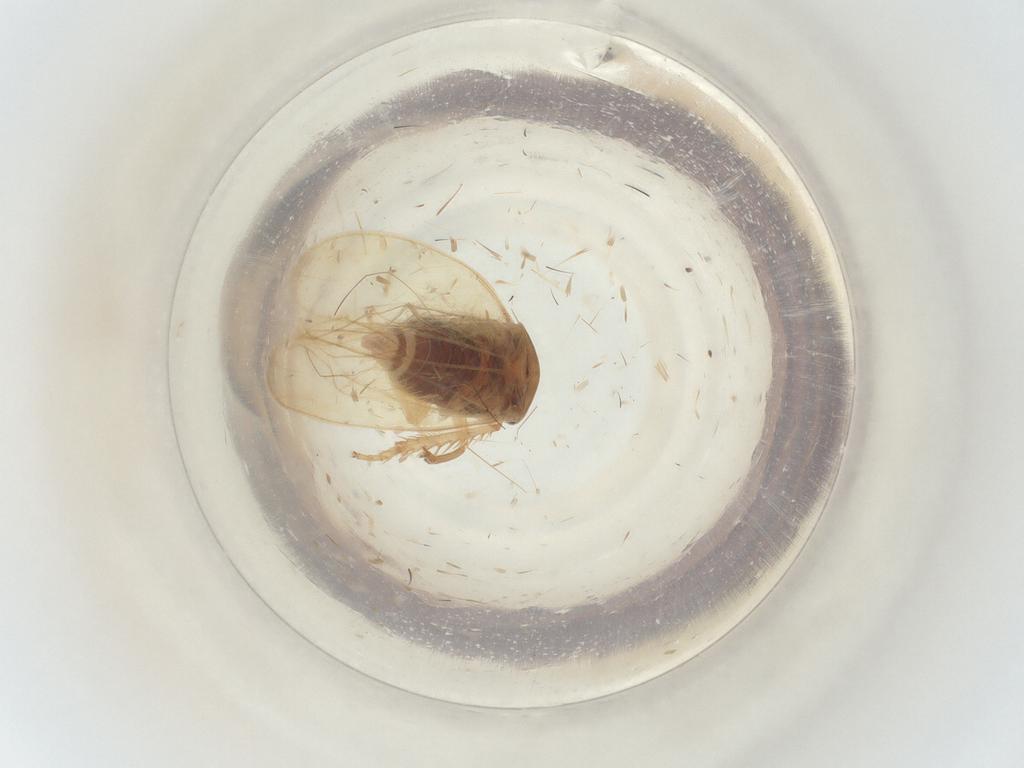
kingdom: Animalia
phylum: Arthropoda
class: Insecta
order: Hemiptera
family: Cicadellidae
